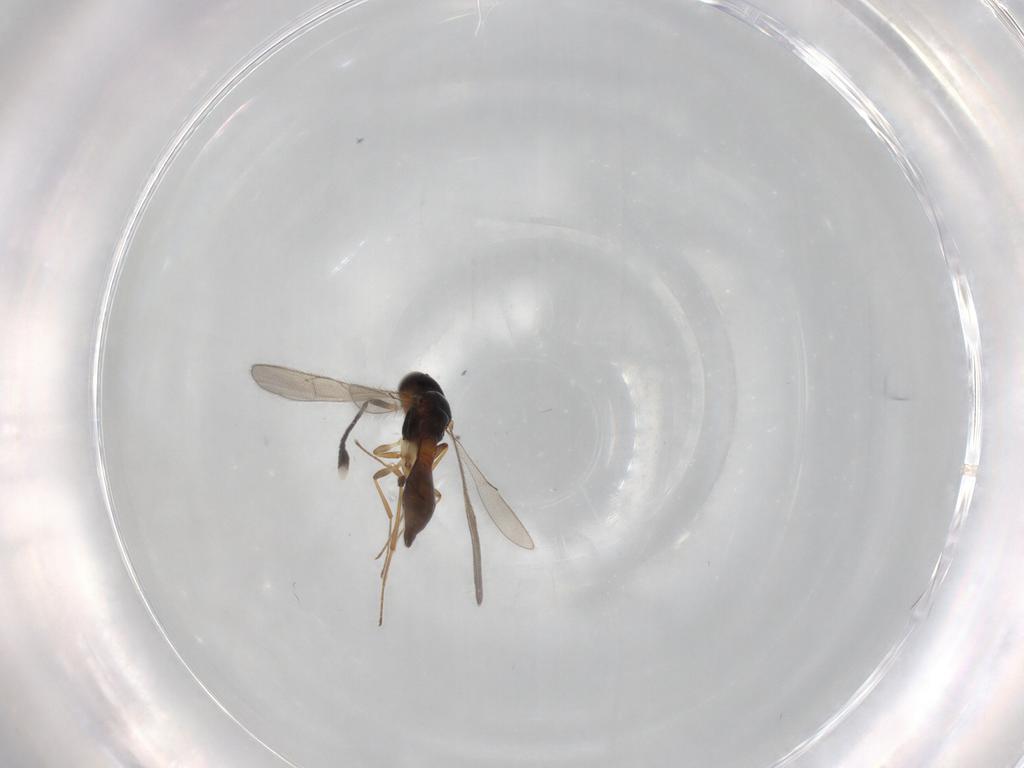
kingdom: Animalia
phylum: Arthropoda
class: Insecta
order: Hymenoptera
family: Scelionidae
